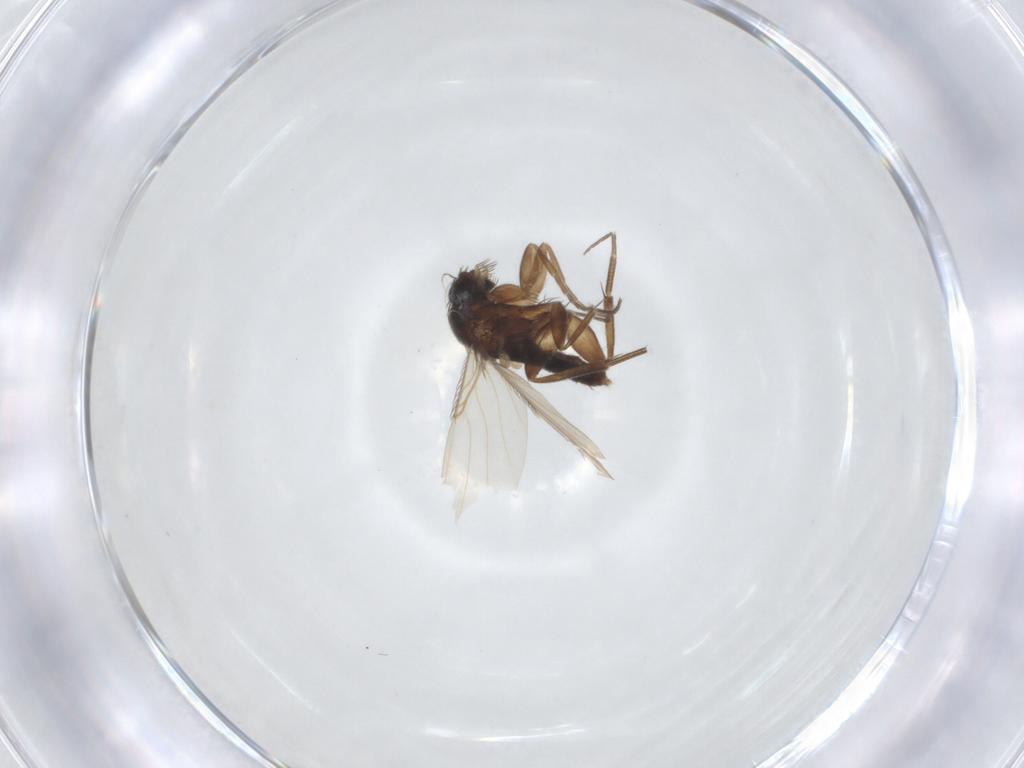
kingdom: Animalia
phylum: Arthropoda
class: Insecta
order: Diptera
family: Phoridae
